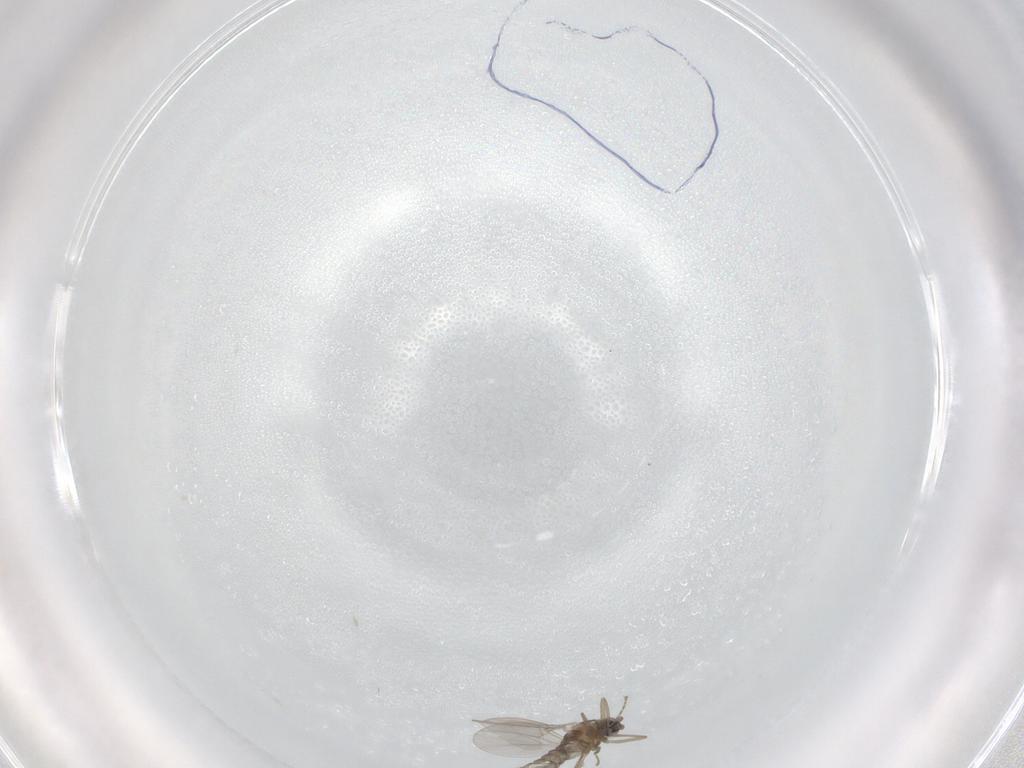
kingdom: Animalia
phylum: Arthropoda
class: Insecta
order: Diptera
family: Cecidomyiidae
